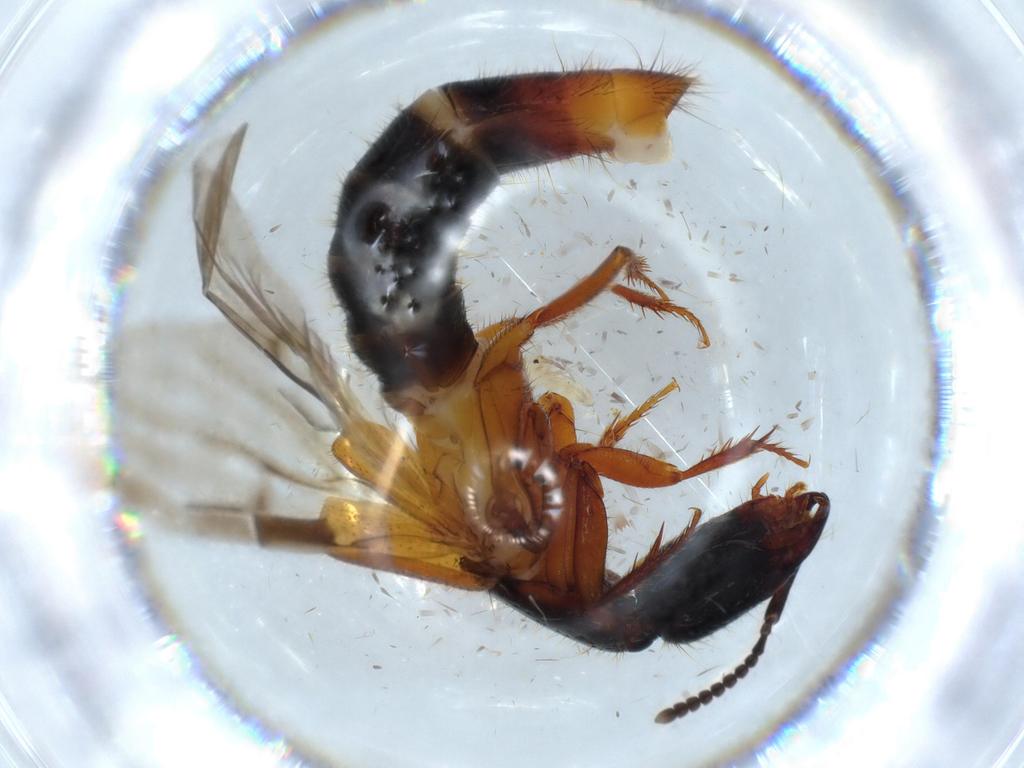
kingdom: Animalia
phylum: Arthropoda
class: Insecta
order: Coleoptera
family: Staphylinidae
